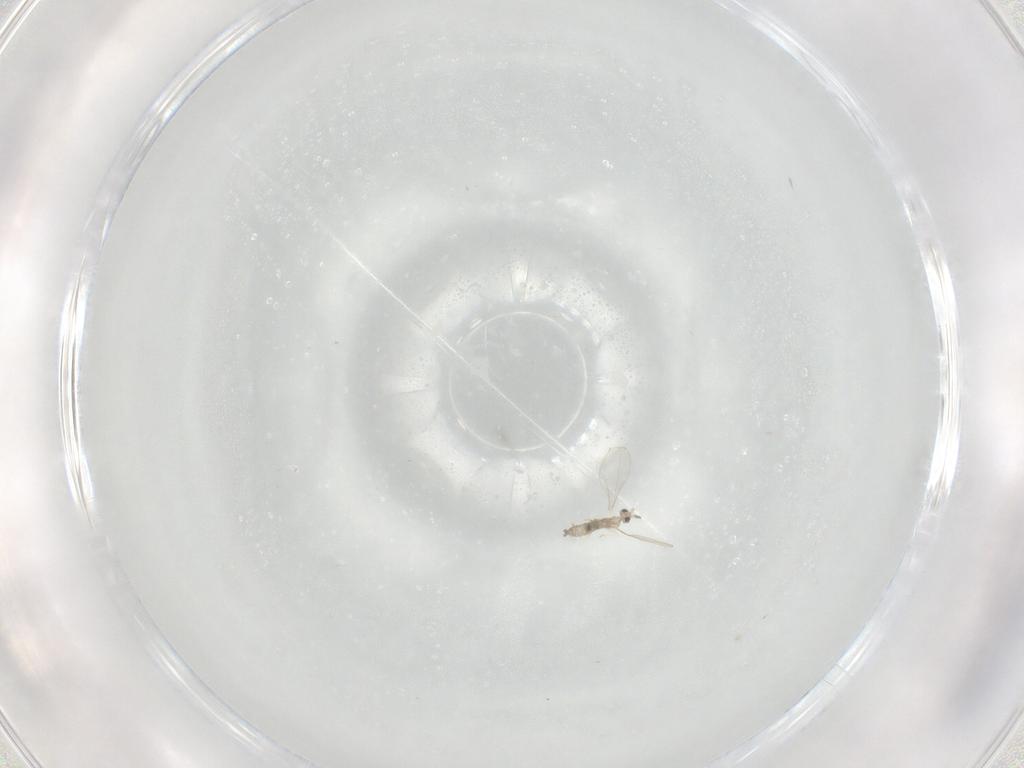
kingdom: Animalia
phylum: Arthropoda
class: Insecta
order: Diptera
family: Cecidomyiidae
